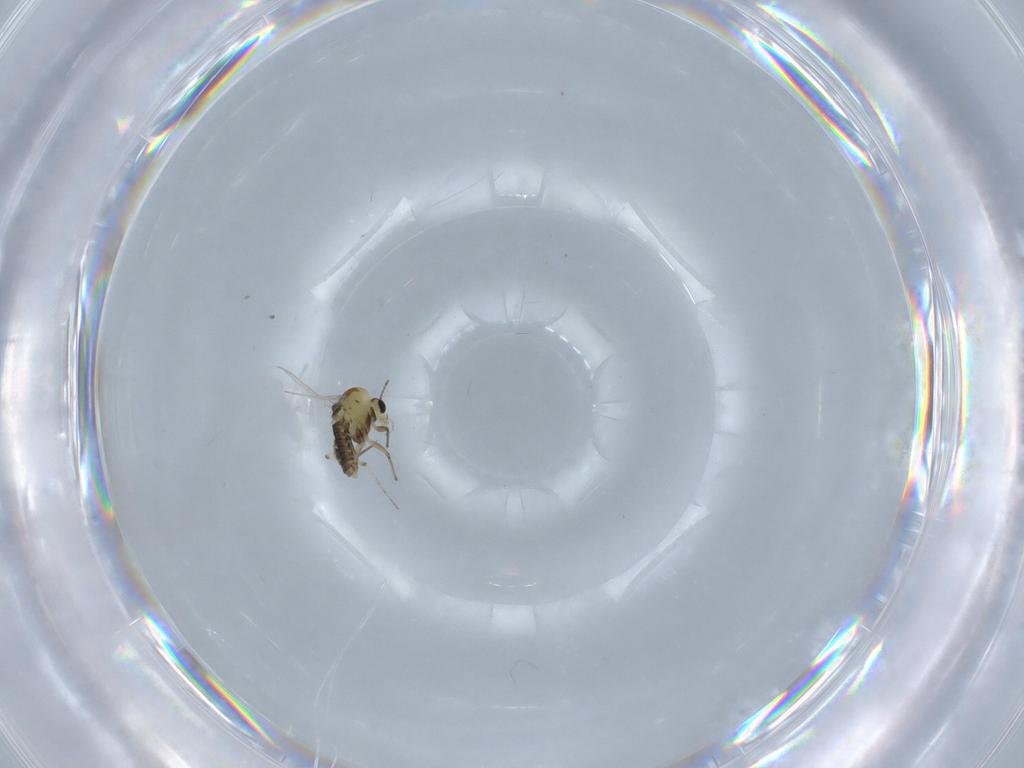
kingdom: Animalia
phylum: Arthropoda
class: Insecta
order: Diptera
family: Chironomidae
